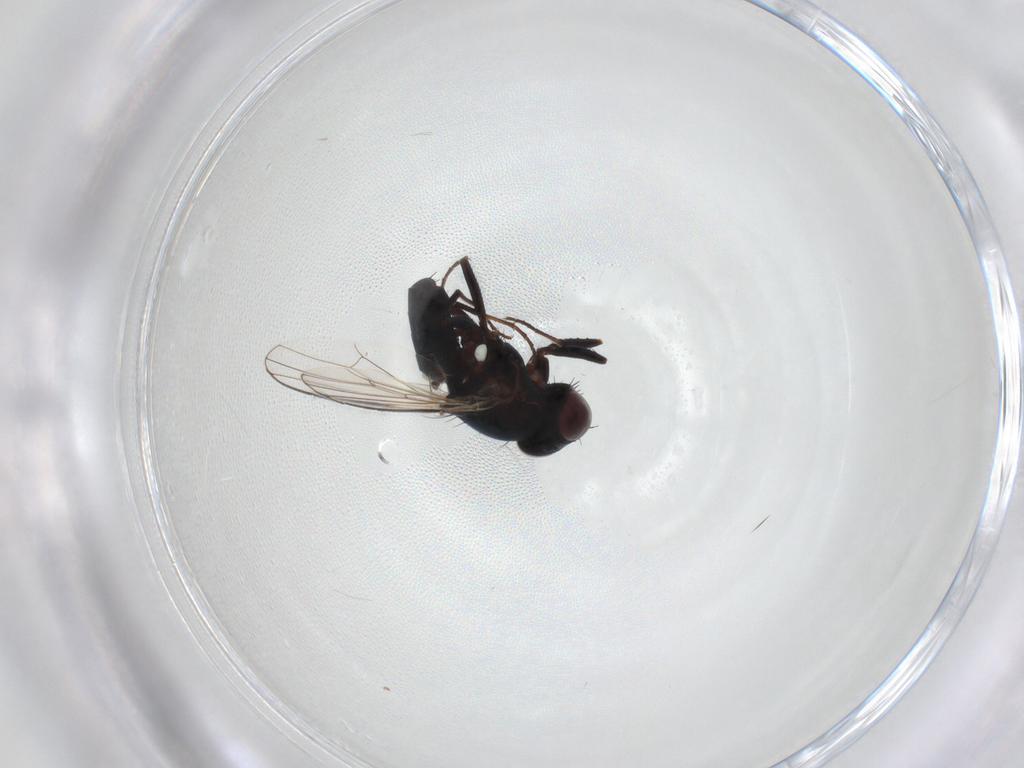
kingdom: Animalia
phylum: Arthropoda
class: Insecta
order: Diptera
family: Carnidae
